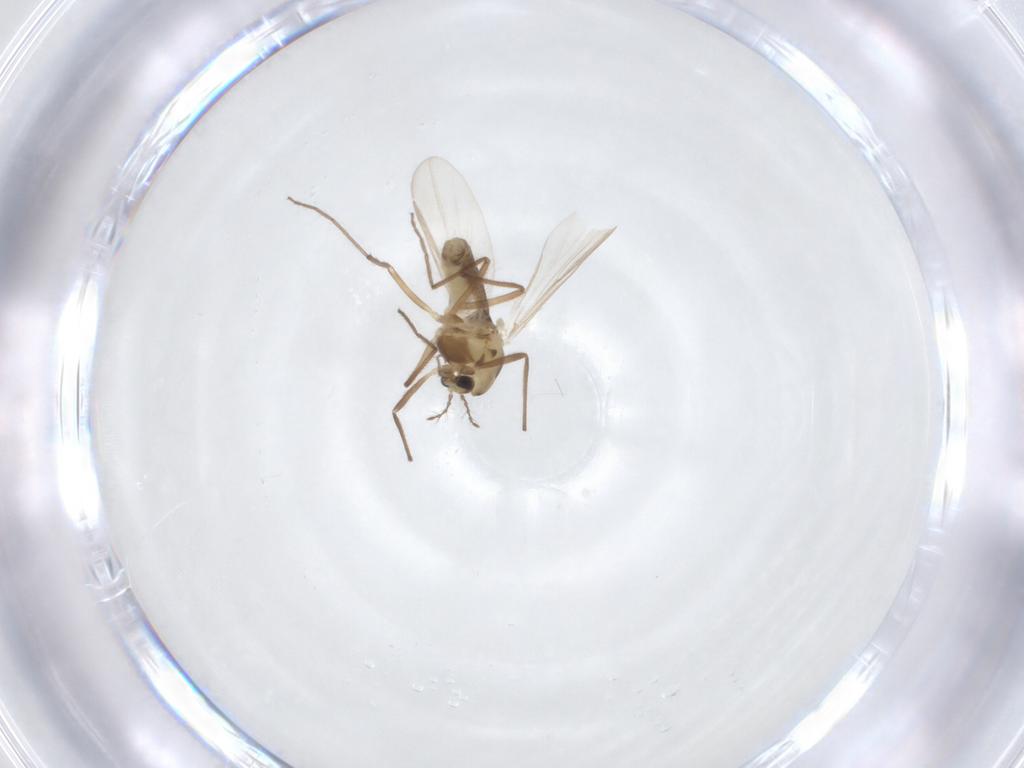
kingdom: Animalia
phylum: Arthropoda
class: Insecta
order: Diptera
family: Chironomidae
